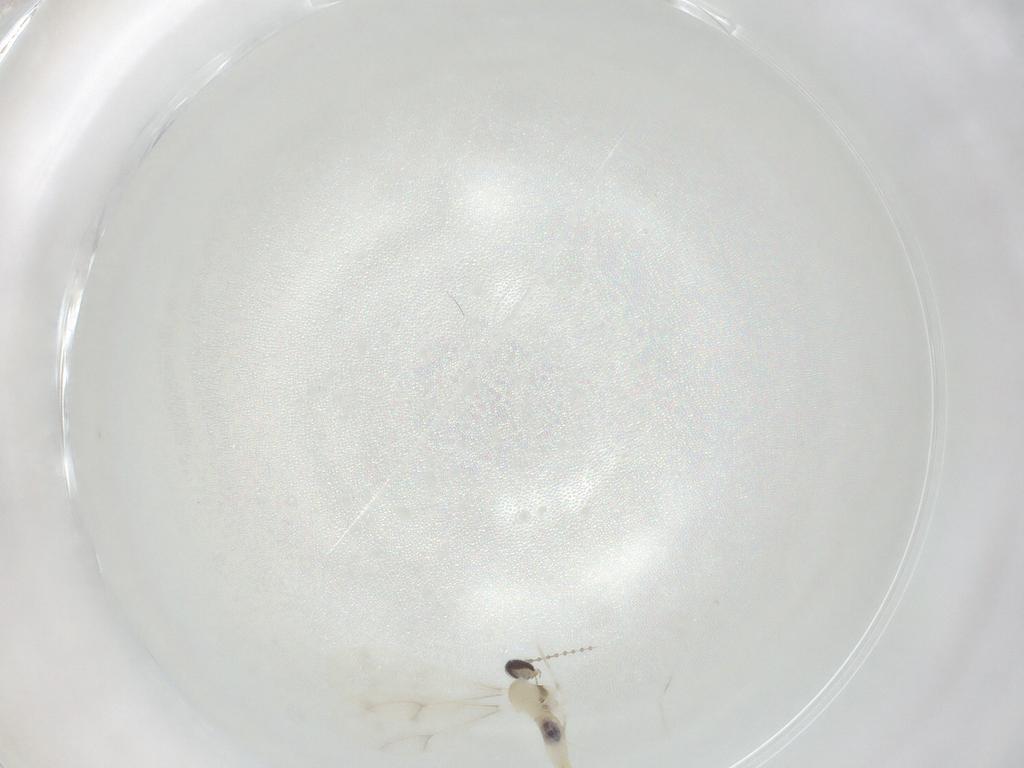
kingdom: Animalia
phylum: Arthropoda
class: Insecta
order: Diptera
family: Cecidomyiidae
